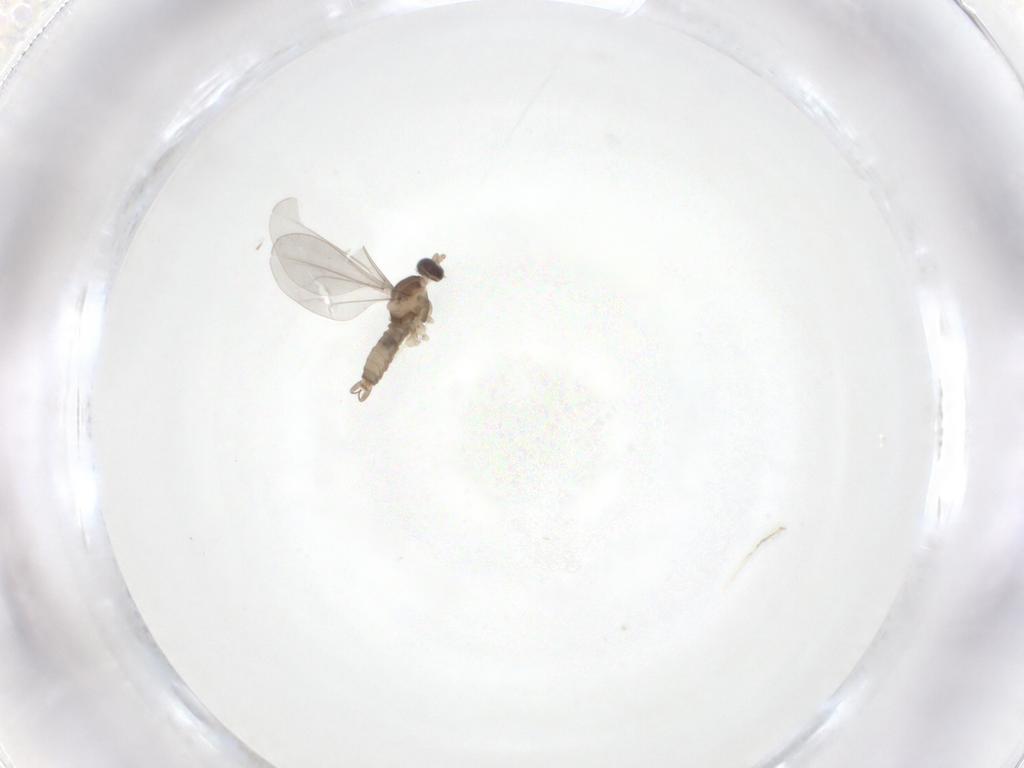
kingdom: Animalia
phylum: Arthropoda
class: Insecta
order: Diptera
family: Cecidomyiidae
